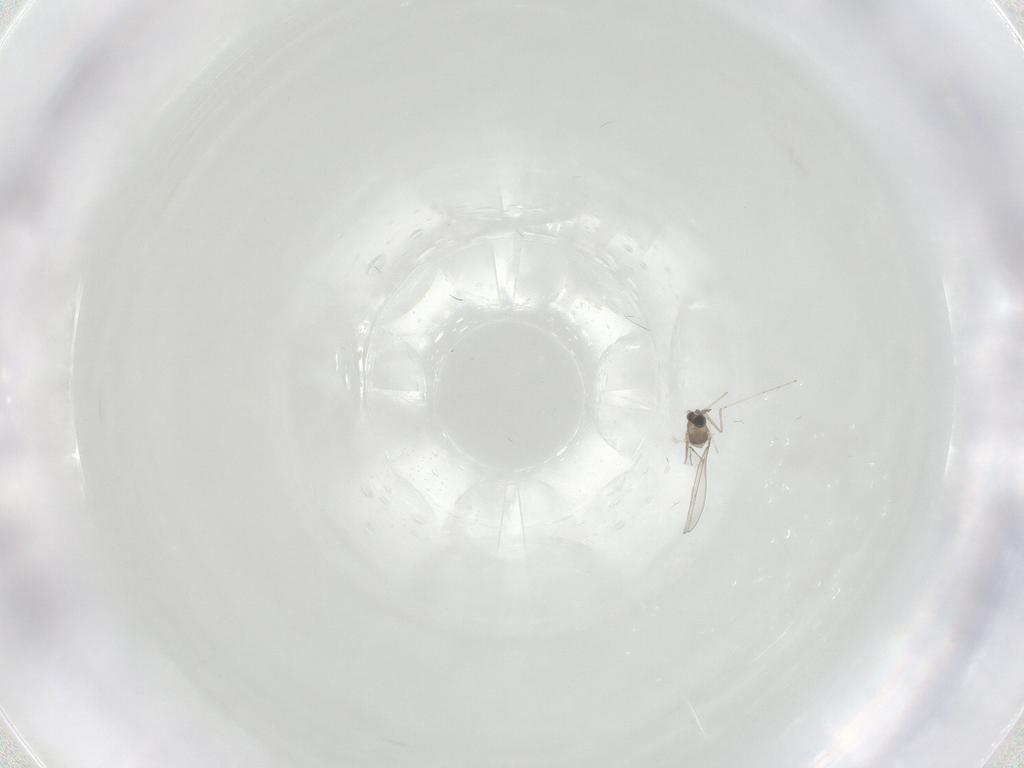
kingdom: Animalia
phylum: Arthropoda
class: Insecta
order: Diptera
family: Cecidomyiidae
